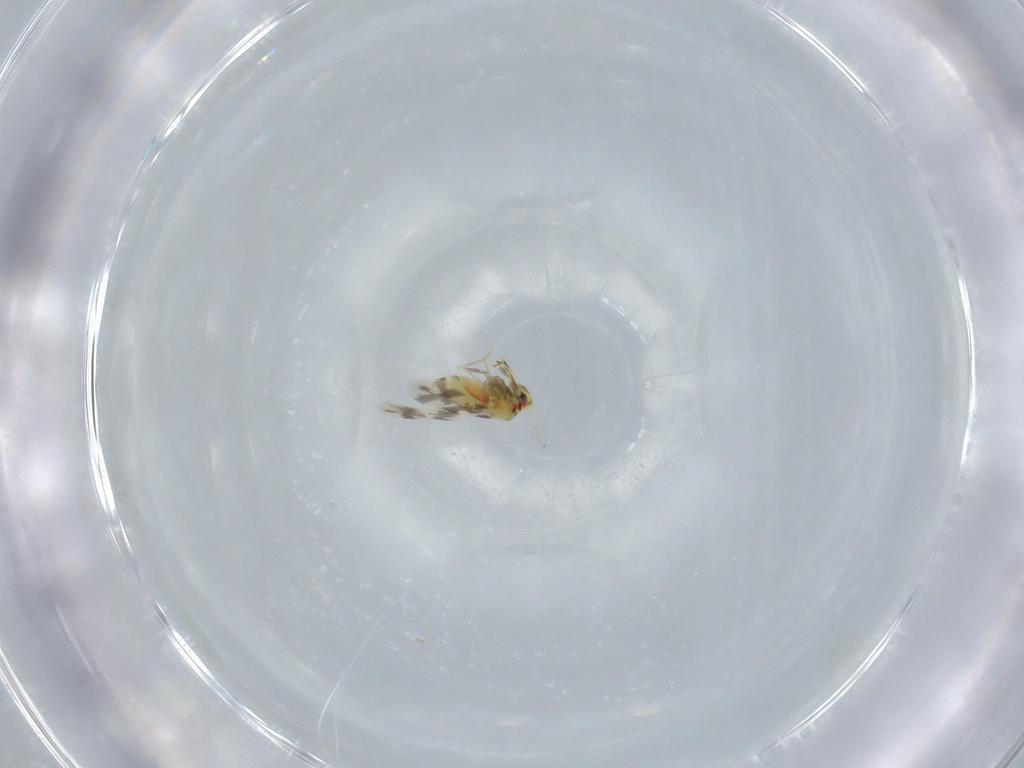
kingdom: Animalia
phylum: Arthropoda
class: Insecta
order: Hemiptera
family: Aleyrodidae
